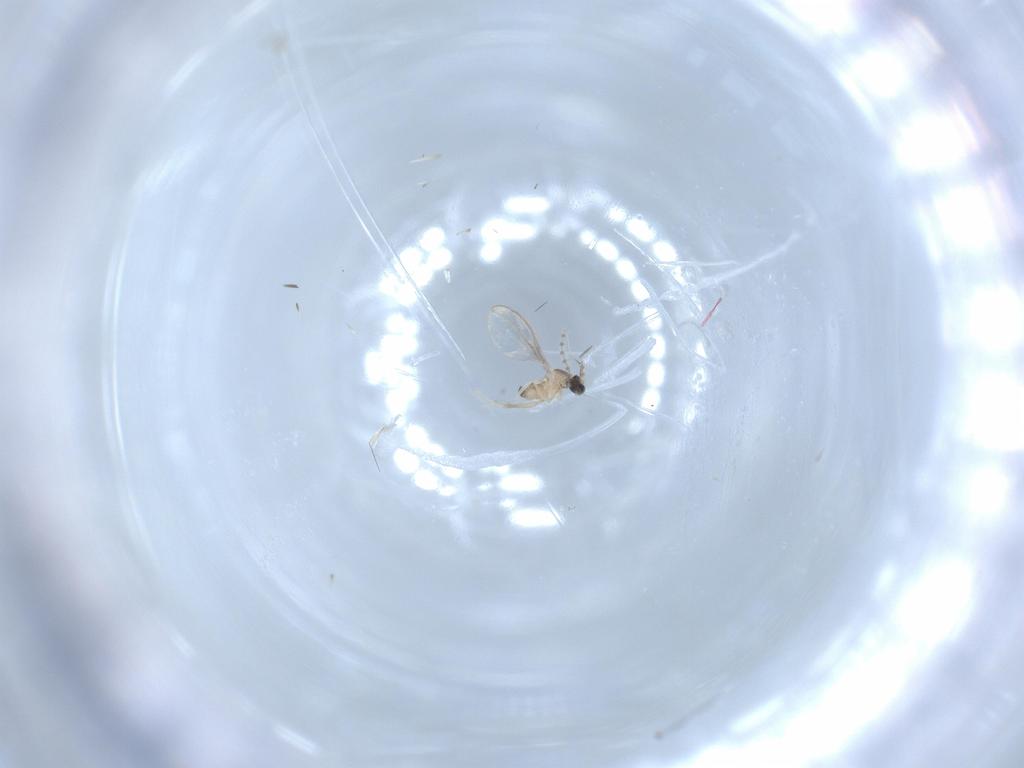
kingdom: Animalia
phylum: Arthropoda
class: Insecta
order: Diptera
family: Cecidomyiidae
